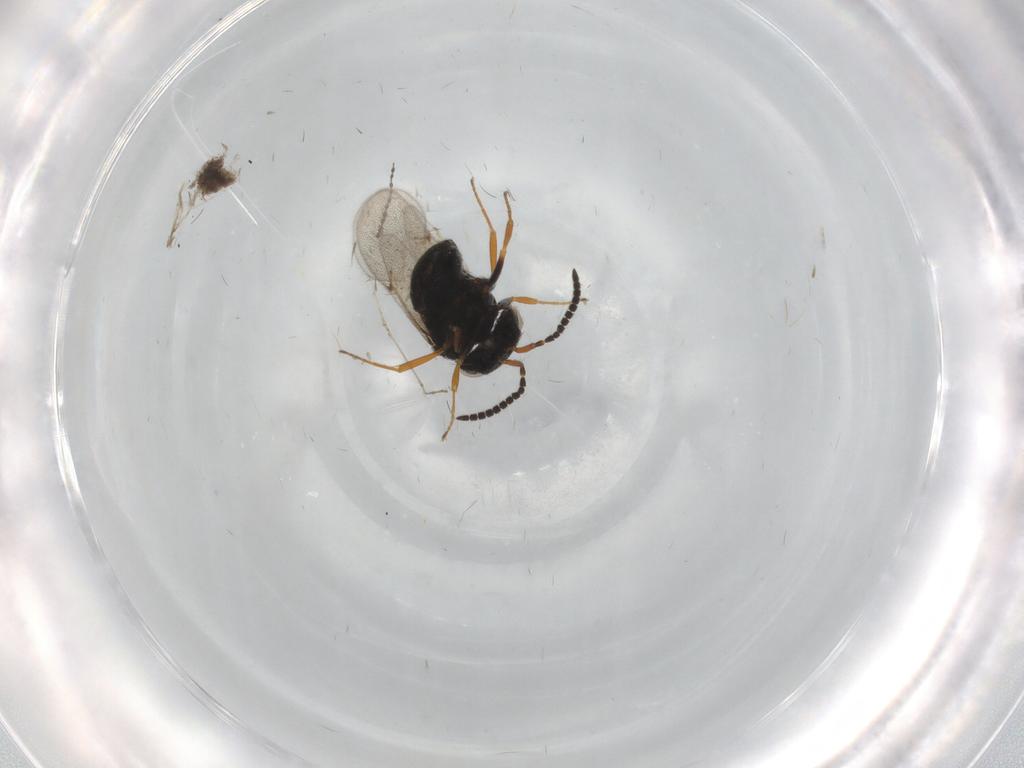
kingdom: Animalia
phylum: Arthropoda
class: Insecta
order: Hymenoptera
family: Scelionidae
